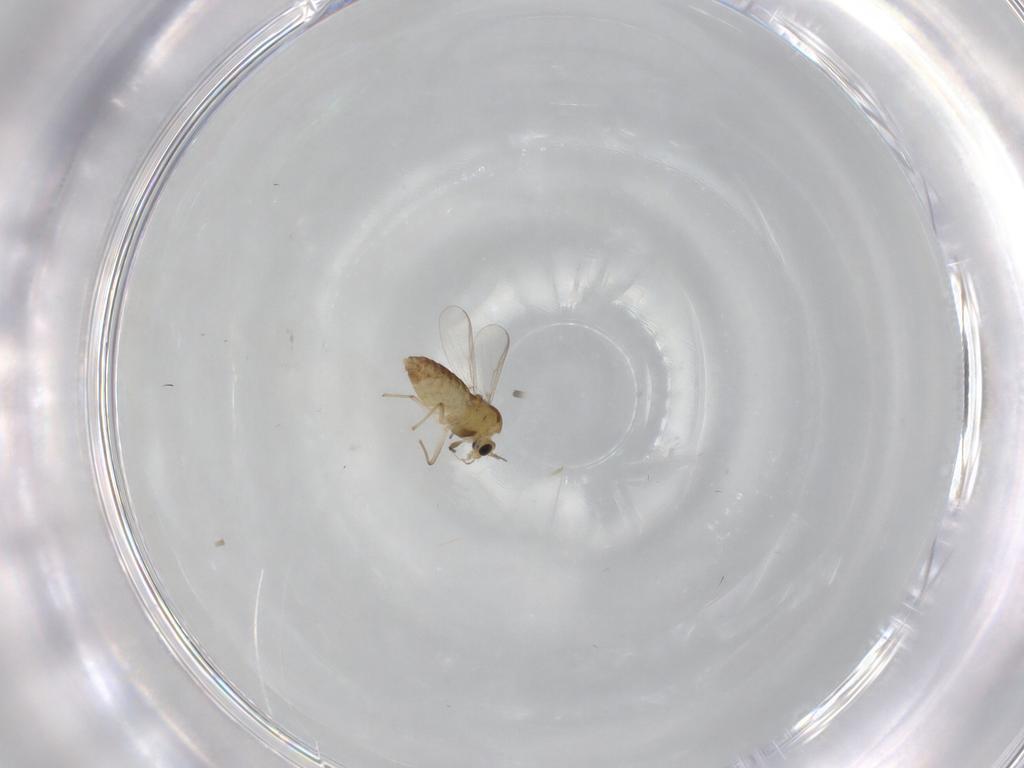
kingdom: Animalia
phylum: Arthropoda
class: Insecta
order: Diptera
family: Chironomidae
